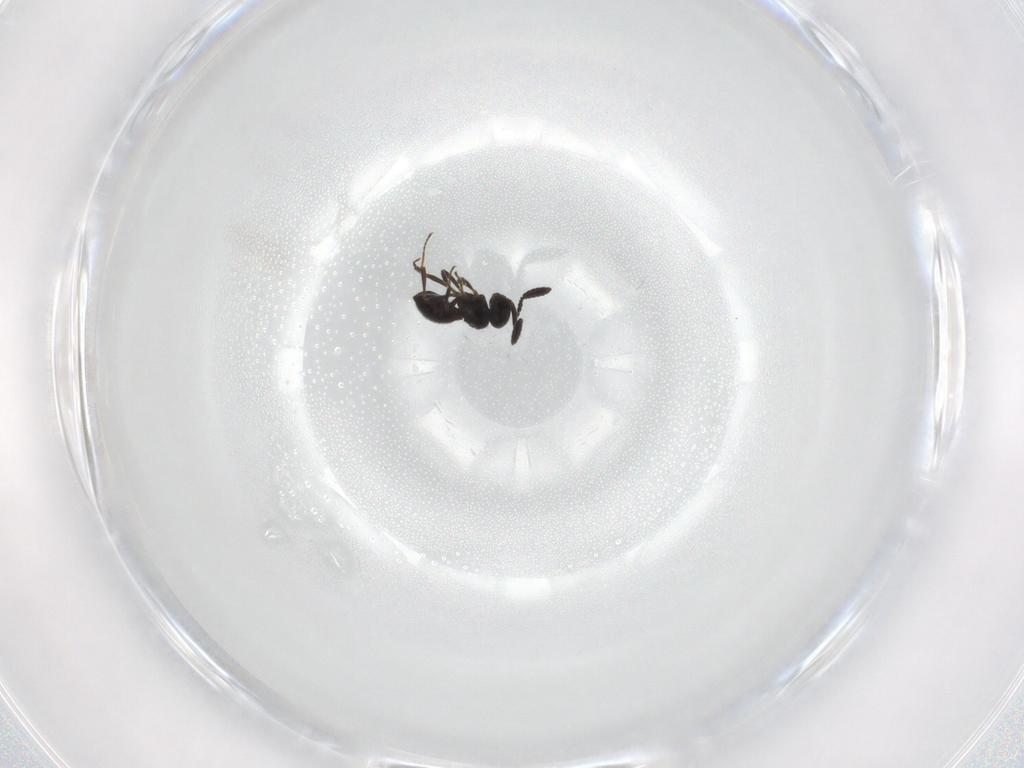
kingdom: Animalia
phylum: Arthropoda
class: Insecta
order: Hymenoptera
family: Scelionidae
